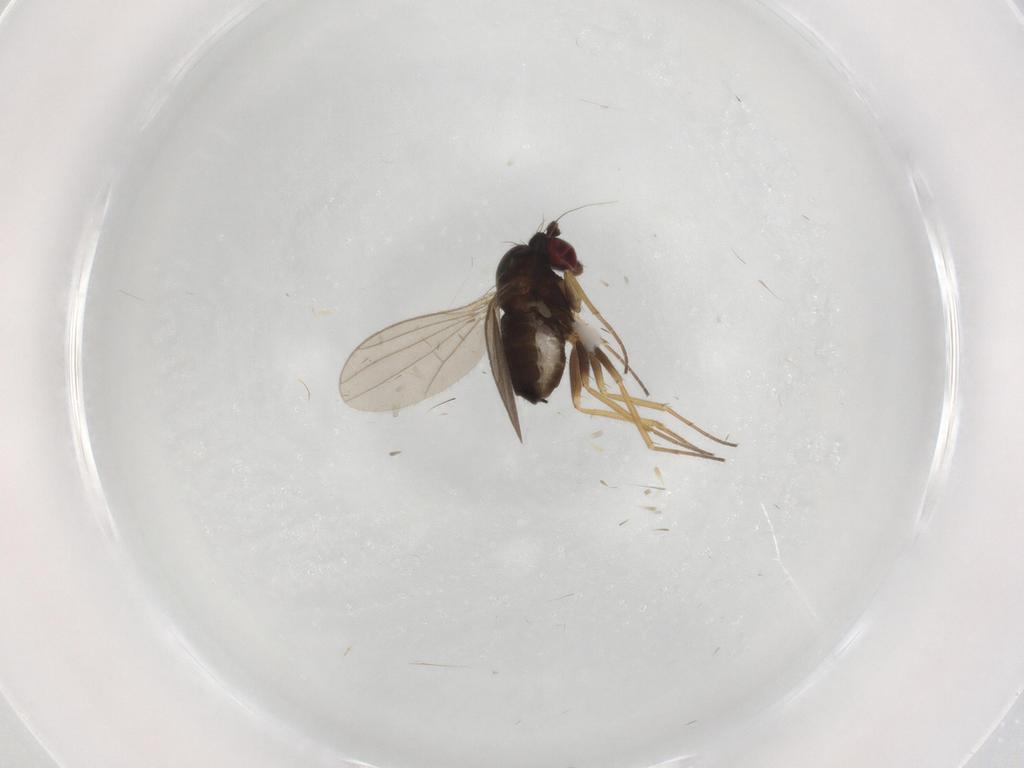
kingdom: Animalia
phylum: Arthropoda
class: Insecta
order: Diptera
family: Dolichopodidae
